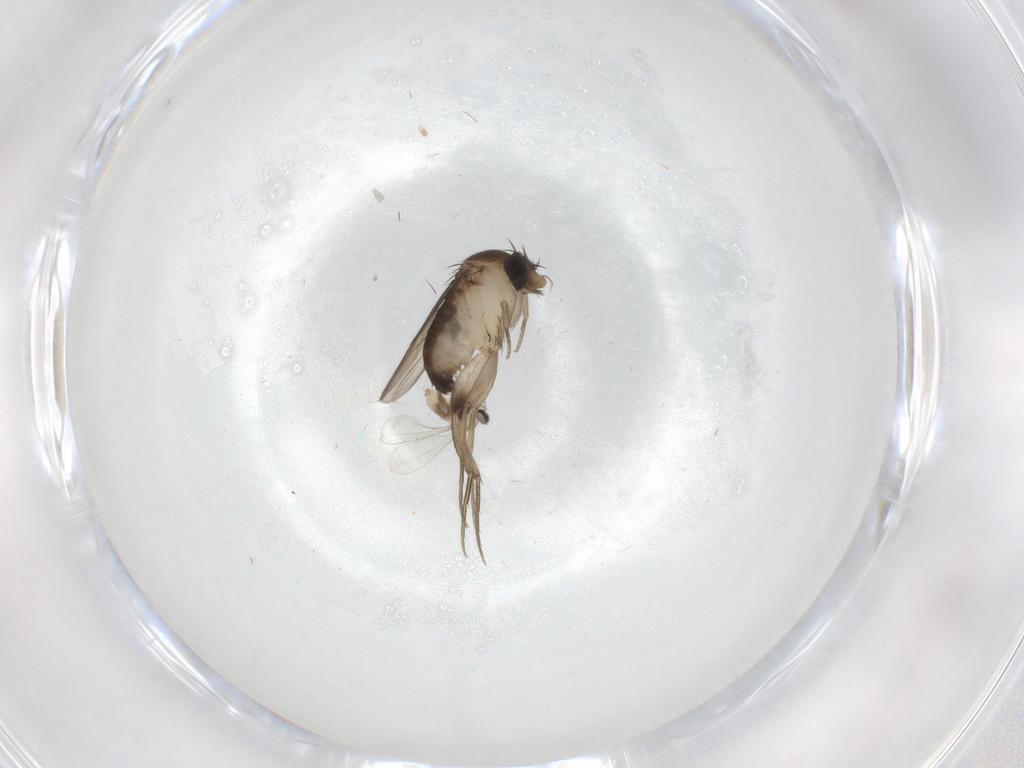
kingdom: Animalia
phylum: Arthropoda
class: Insecta
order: Diptera
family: Phoridae
